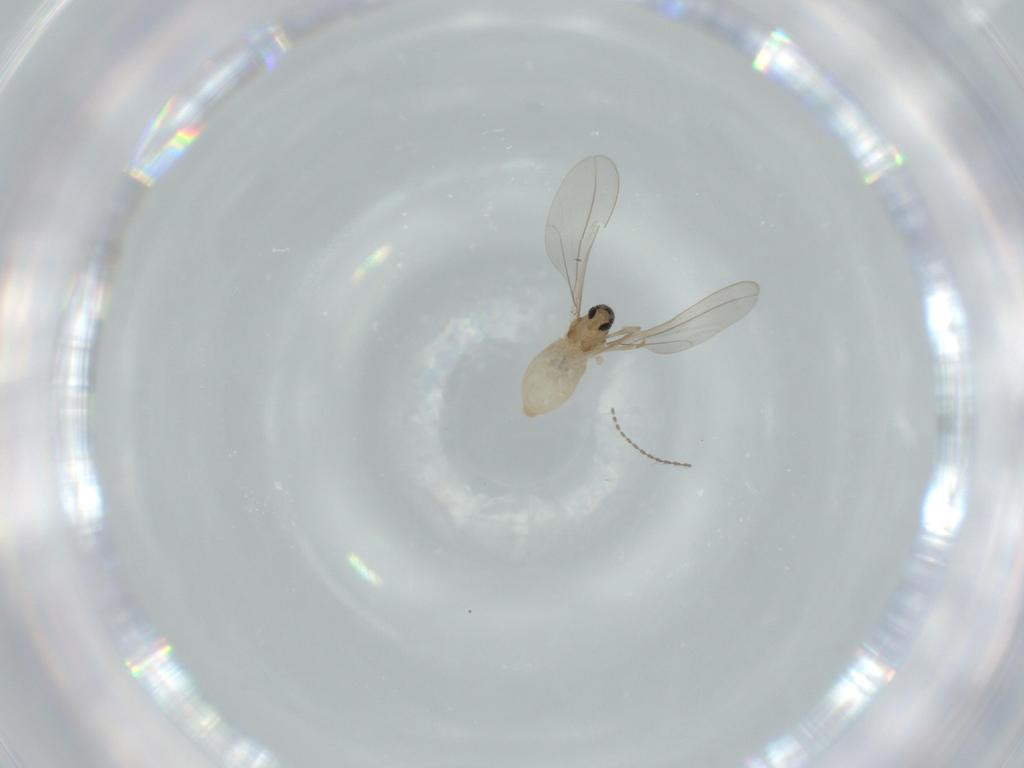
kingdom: Animalia
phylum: Arthropoda
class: Insecta
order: Diptera
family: Cecidomyiidae
